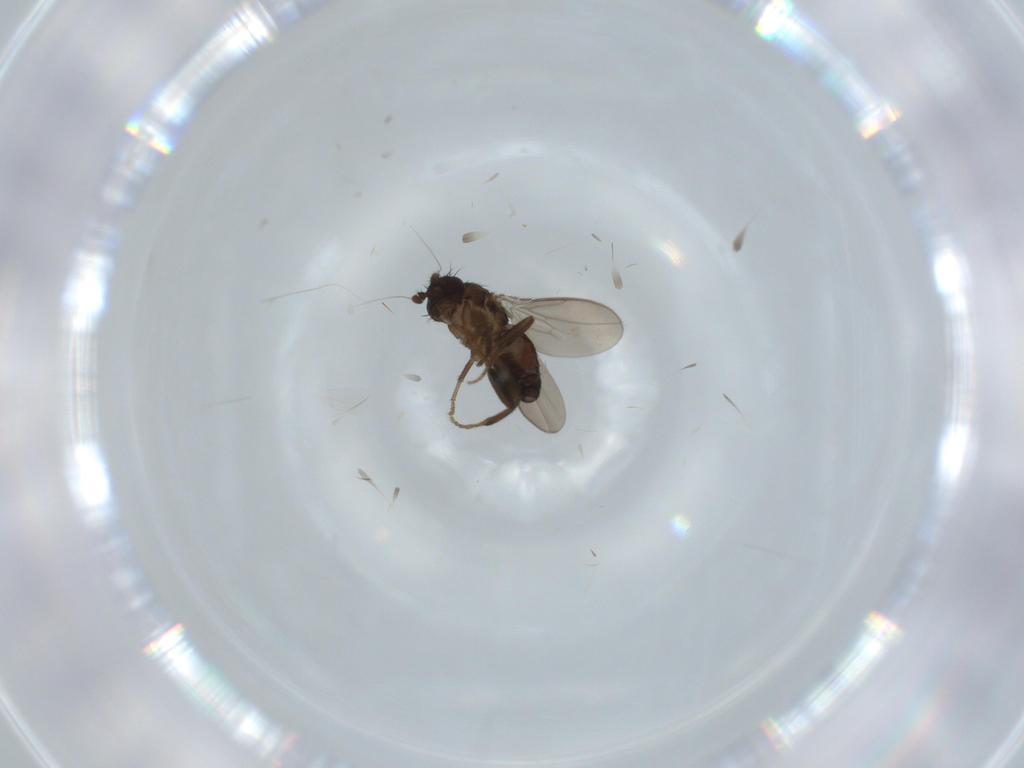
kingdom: Animalia
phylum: Arthropoda
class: Insecta
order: Diptera
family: Sphaeroceridae
